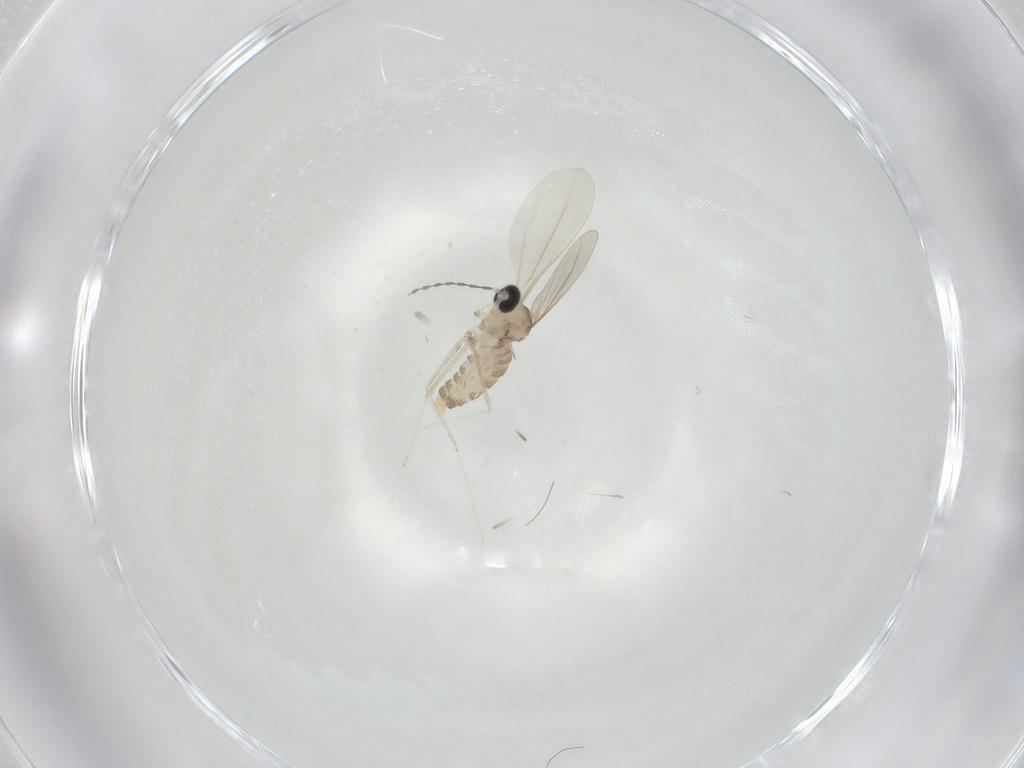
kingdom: Animalia
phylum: Arthropoda
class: Insecta
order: Diptera
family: Cecidomyiidae
